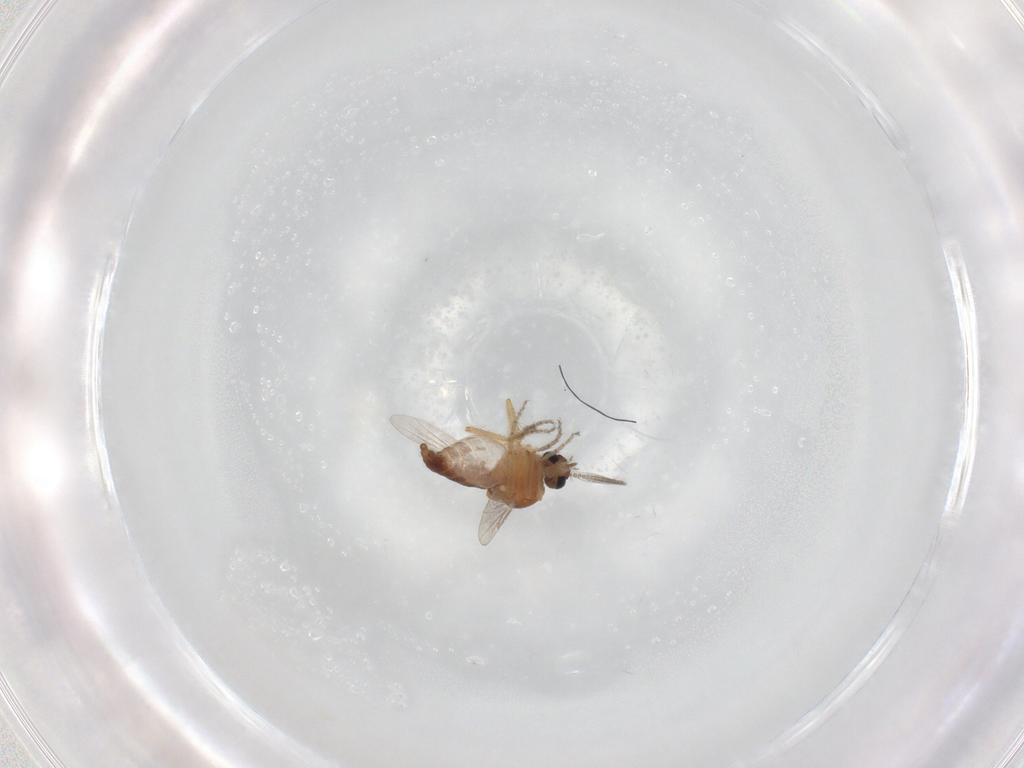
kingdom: Animalia
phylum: Arthropoda
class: Insecta
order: Diptera
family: Ceratopogonidae
